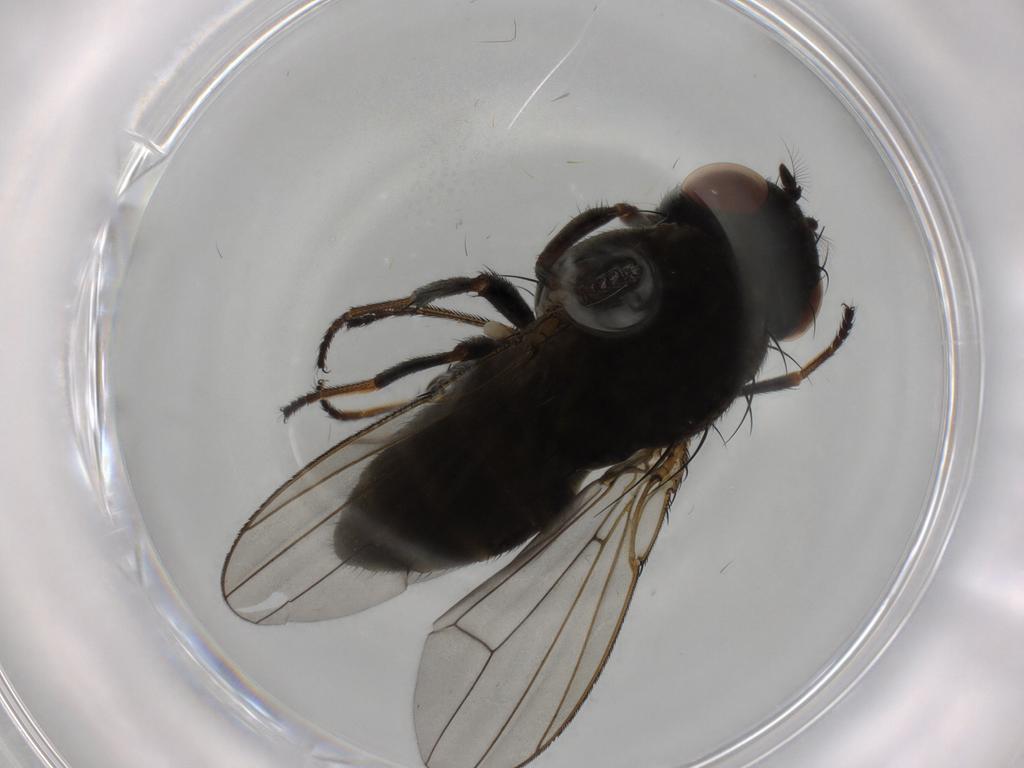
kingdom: Animalia
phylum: Arthropoda
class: Insecta
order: Diptera
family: Ephydridae
